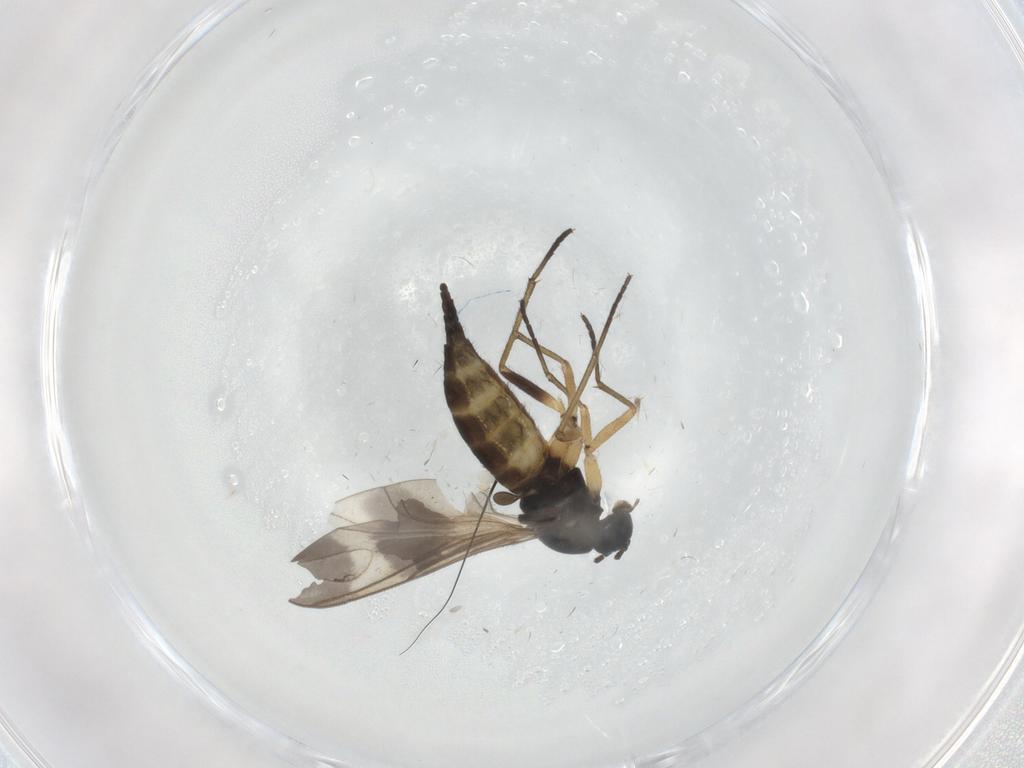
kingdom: Animalia
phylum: Arthropoda
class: Insecta
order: Diptera
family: Sciaridae
